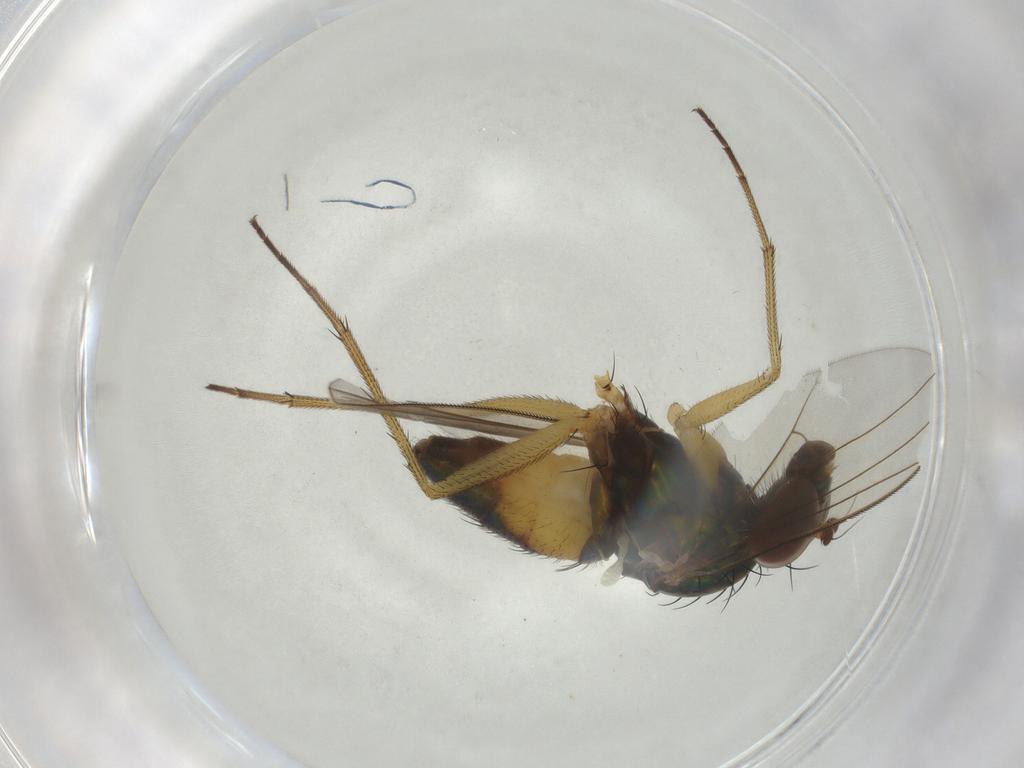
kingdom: Animalia
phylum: Arthropoda
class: Insecta
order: Diptera
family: Sciaridae
